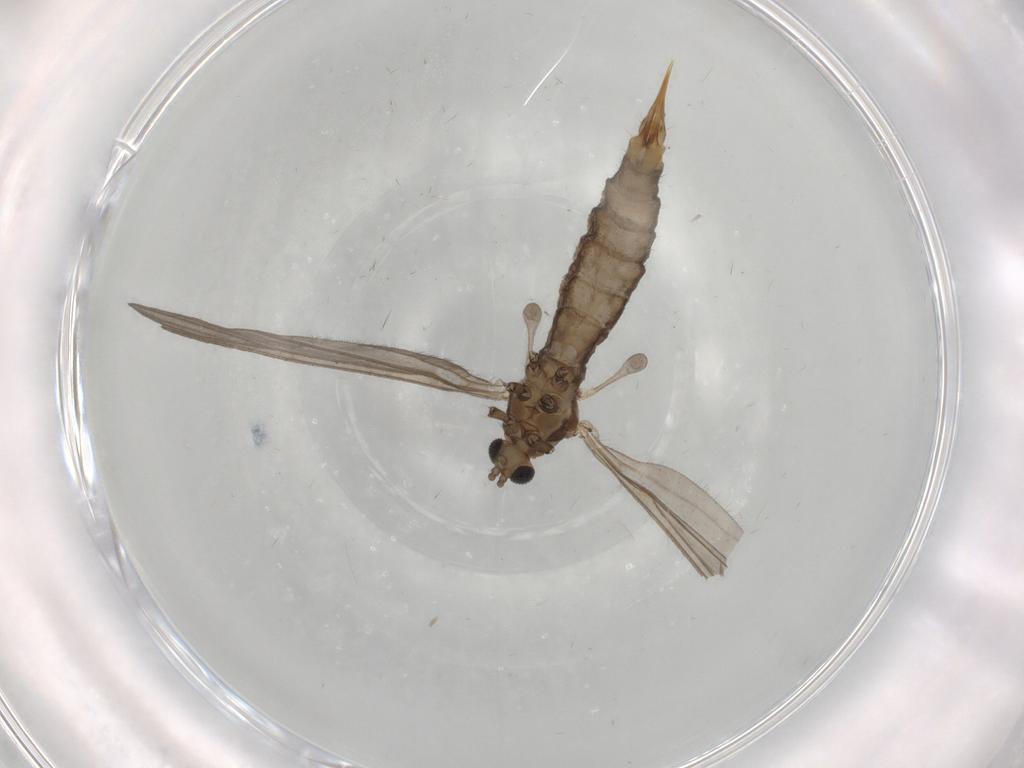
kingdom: Animalia
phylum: Arthropoda
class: Insecta
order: Diptera
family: Limoniidae
